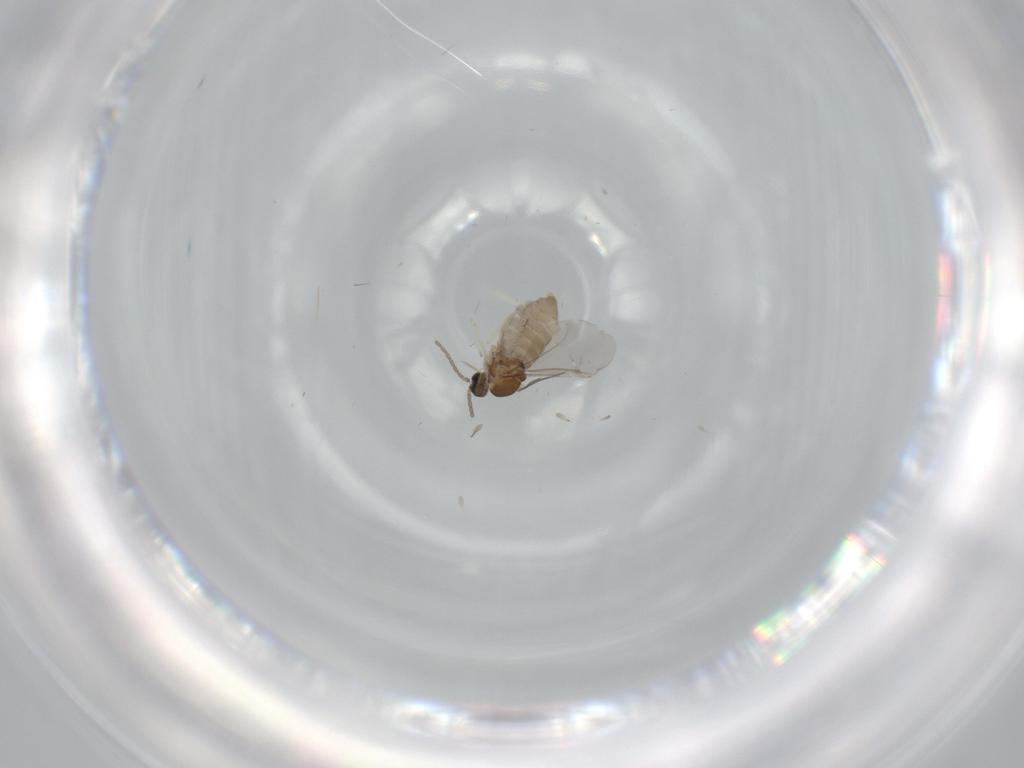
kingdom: Animalia
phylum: Arthropoda
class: Insecta
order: Diptera
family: Cecidomyiidae
